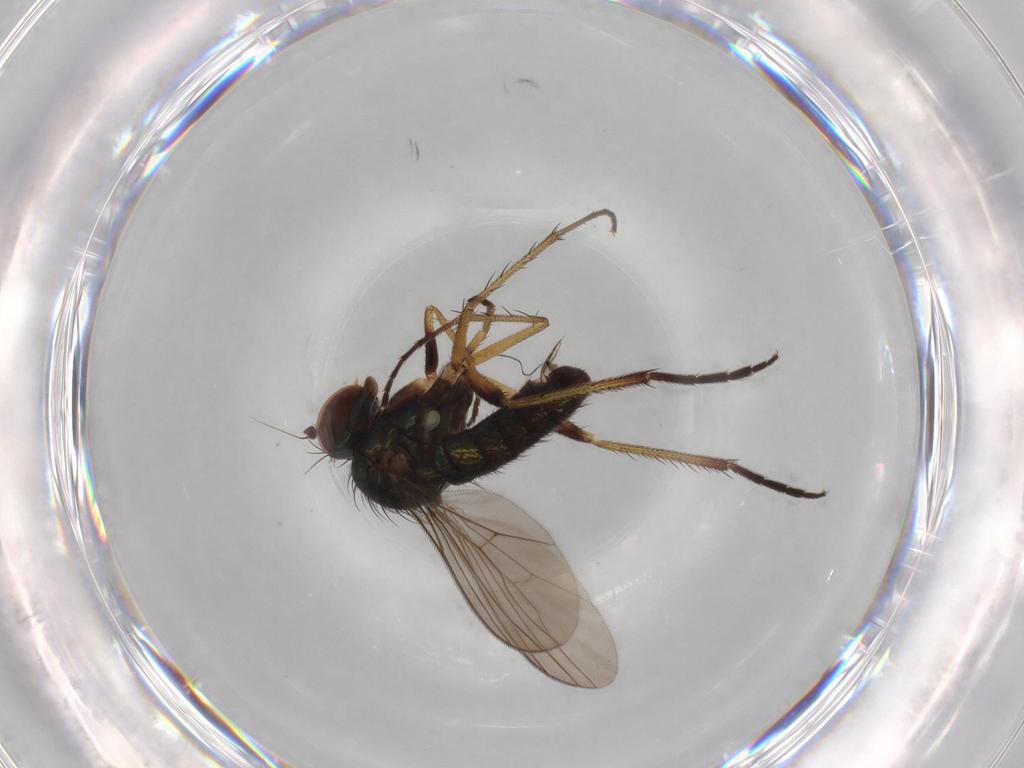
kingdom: Animalia
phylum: Arthropoda
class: Insecta
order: Diptera
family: Dolichopodidae
